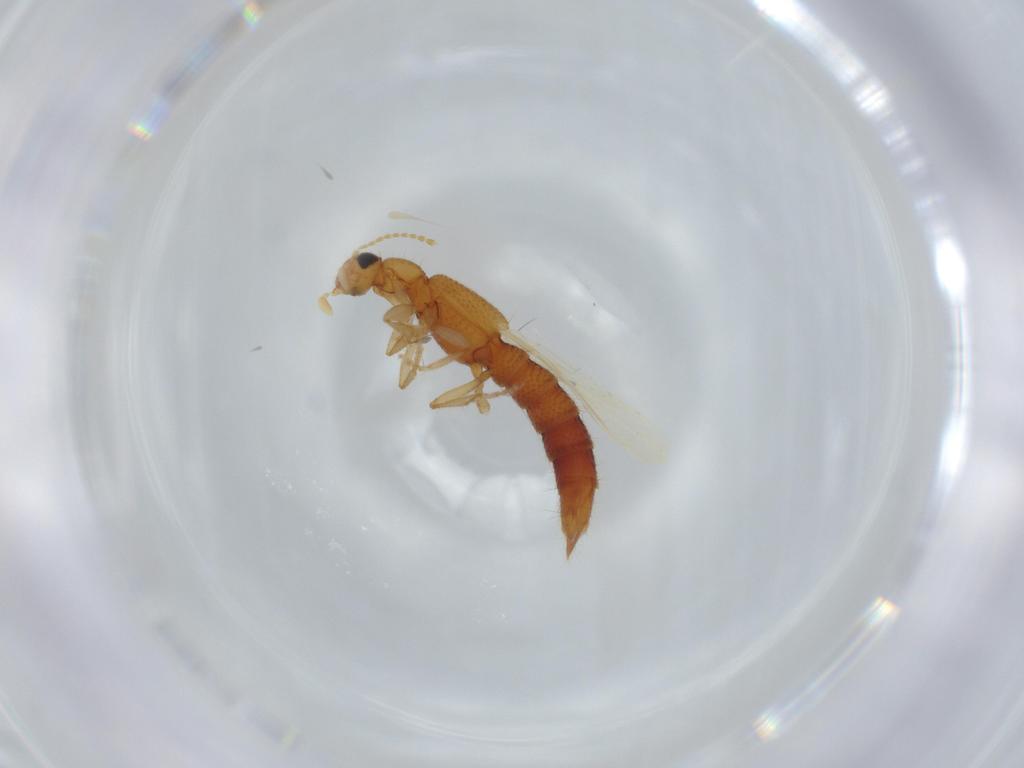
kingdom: Animalia
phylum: Arthropoda
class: Insecta
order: Coleoptera
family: Staphylinidae
